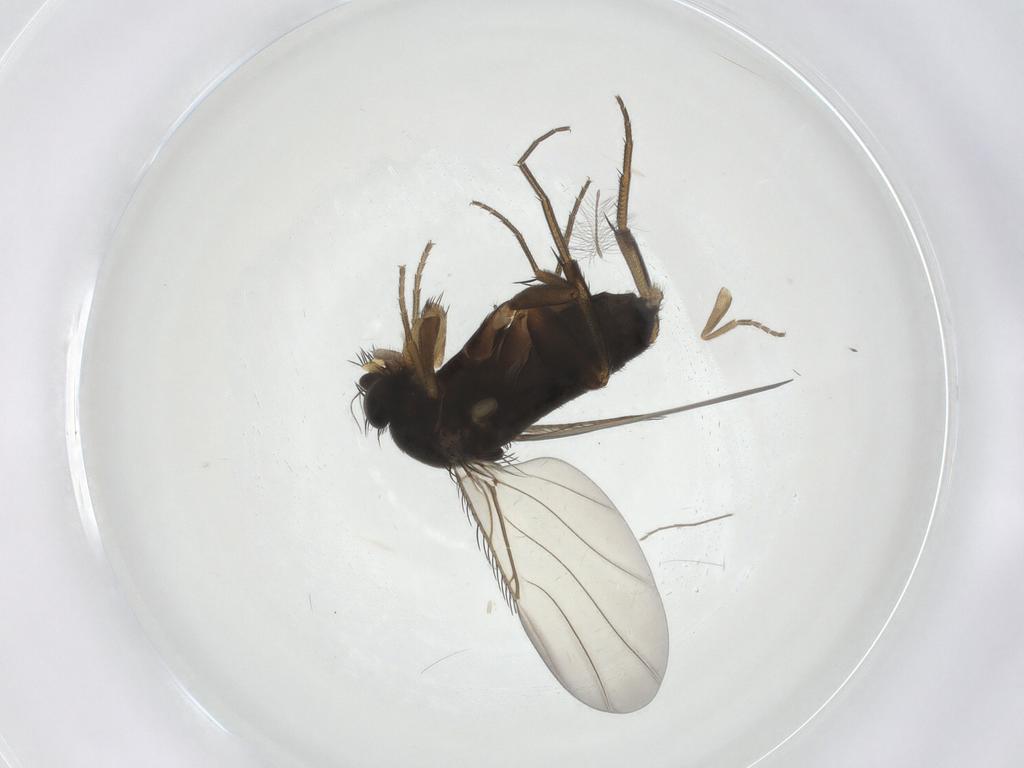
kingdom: Animalia
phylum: Arthropoda
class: Insecta
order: Diptera
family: Phoridae
